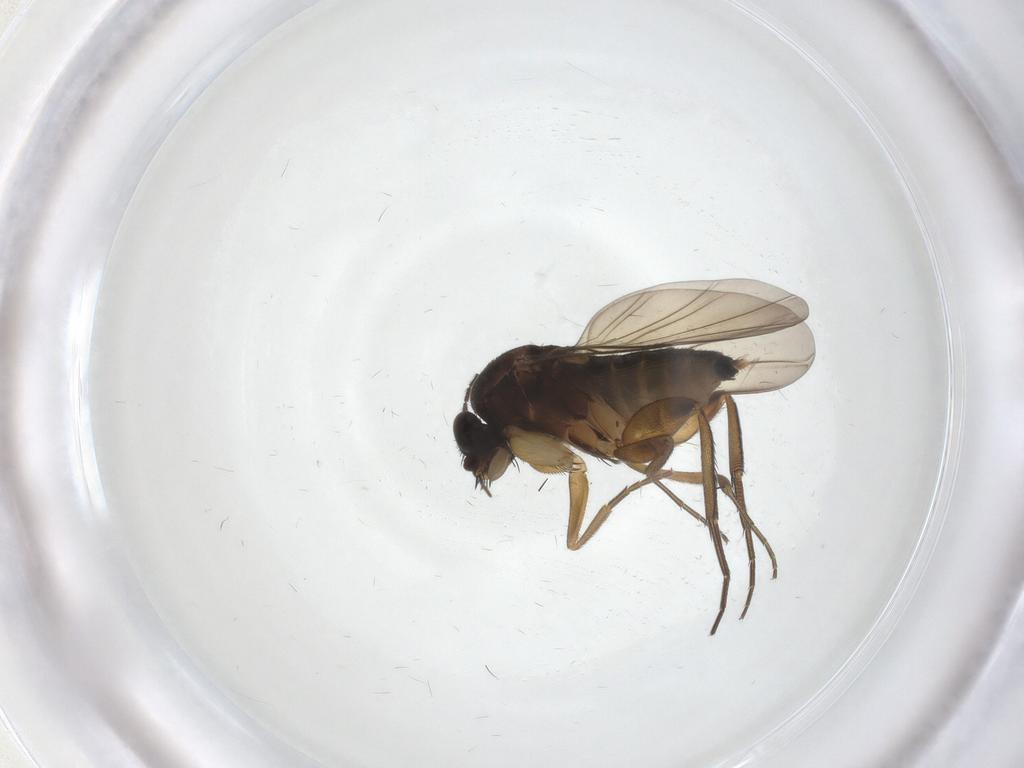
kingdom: Animalia
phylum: Arthropoda
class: Insecta
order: Diptera
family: Phoridae
